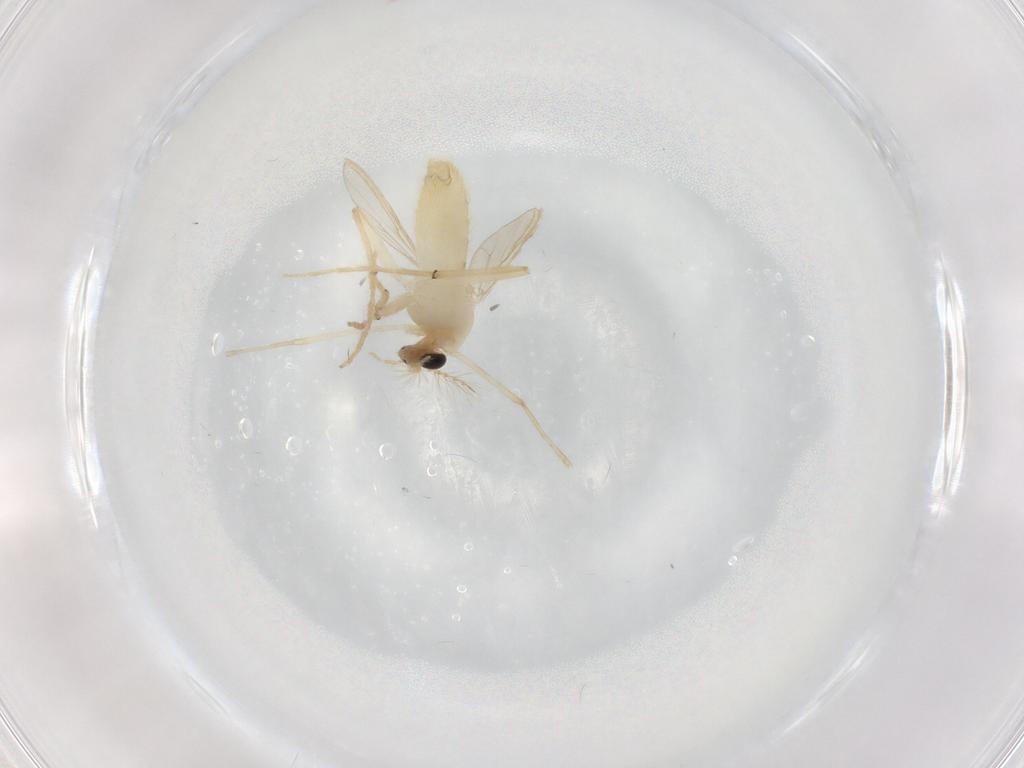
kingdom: Animalia
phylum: Arthropoda
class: Insecta
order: Diptera
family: Chironomidae
